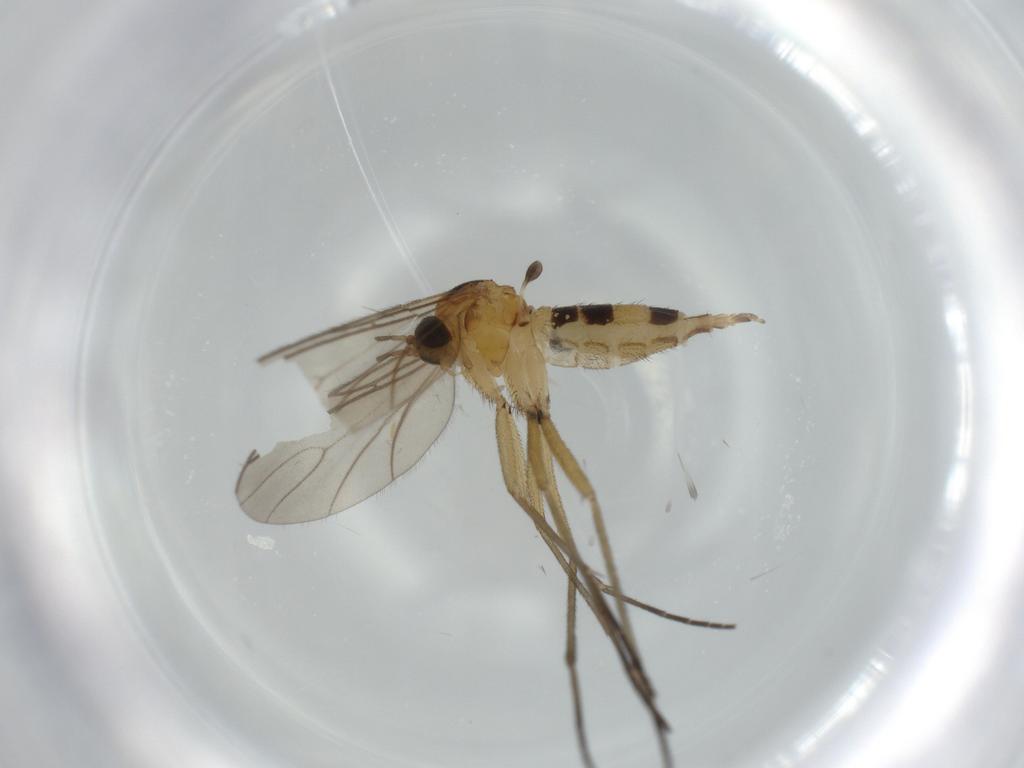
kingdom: Animalia
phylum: Arthropoda
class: Insecta
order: Diptera
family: Sciaridae
